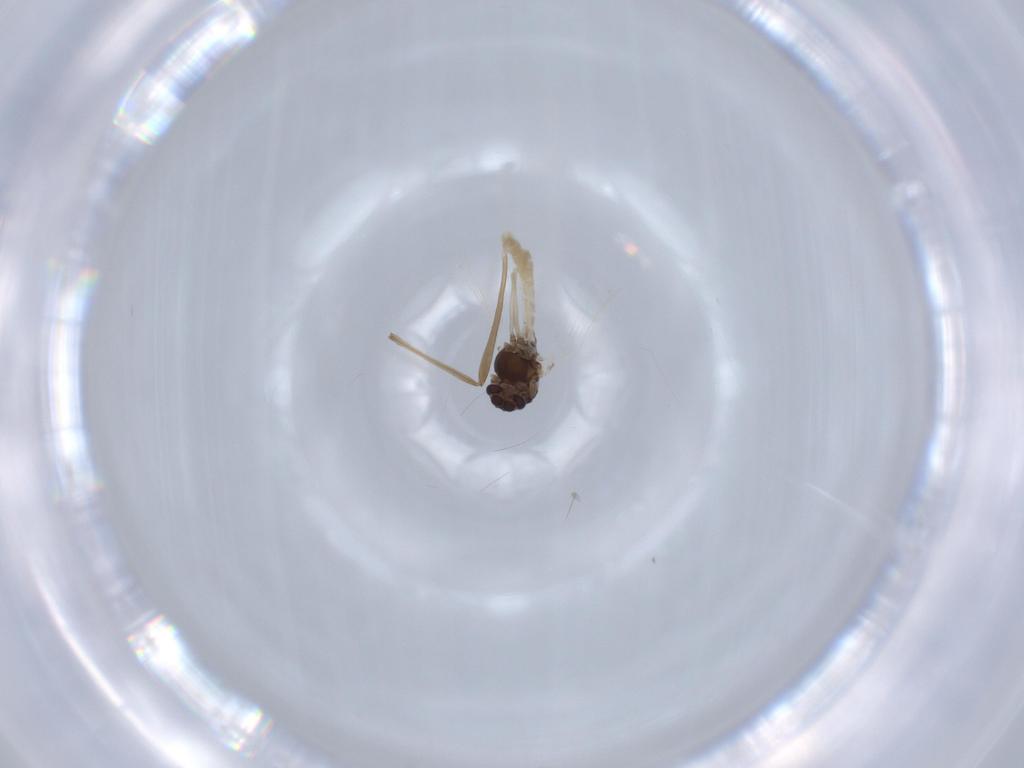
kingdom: Animalia
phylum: Arthropoda
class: Insecta
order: Diptera
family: Chironomidae
